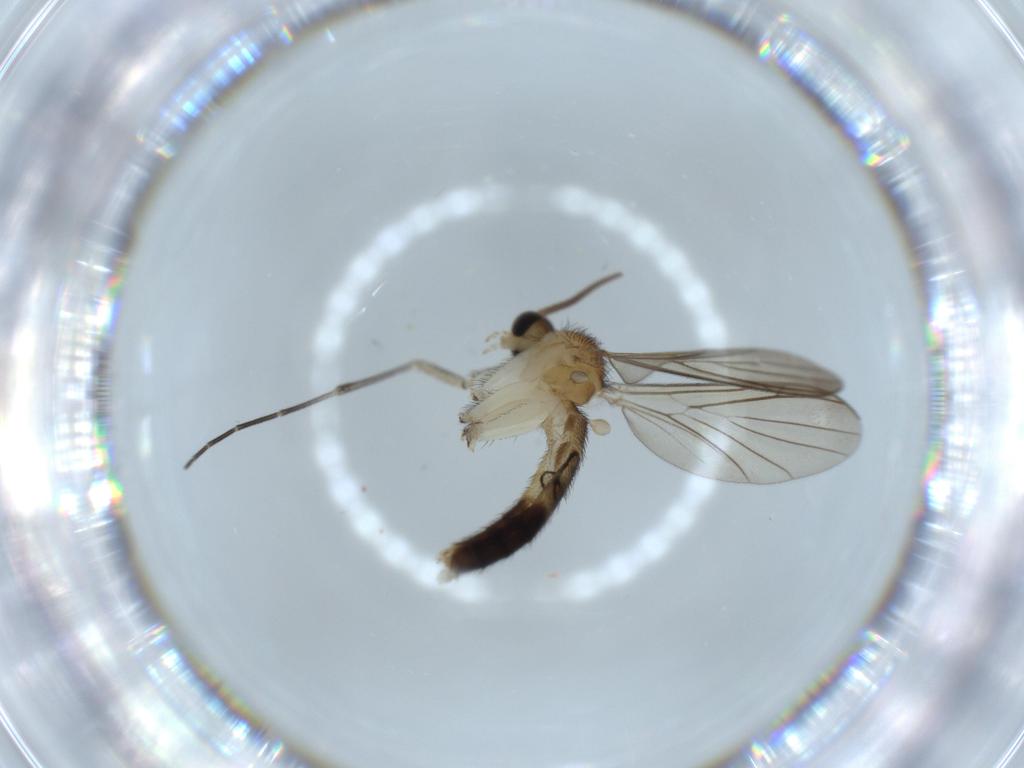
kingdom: Animalia
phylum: Arthropoda
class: Insecta
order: Diptera
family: Keroplatidae
